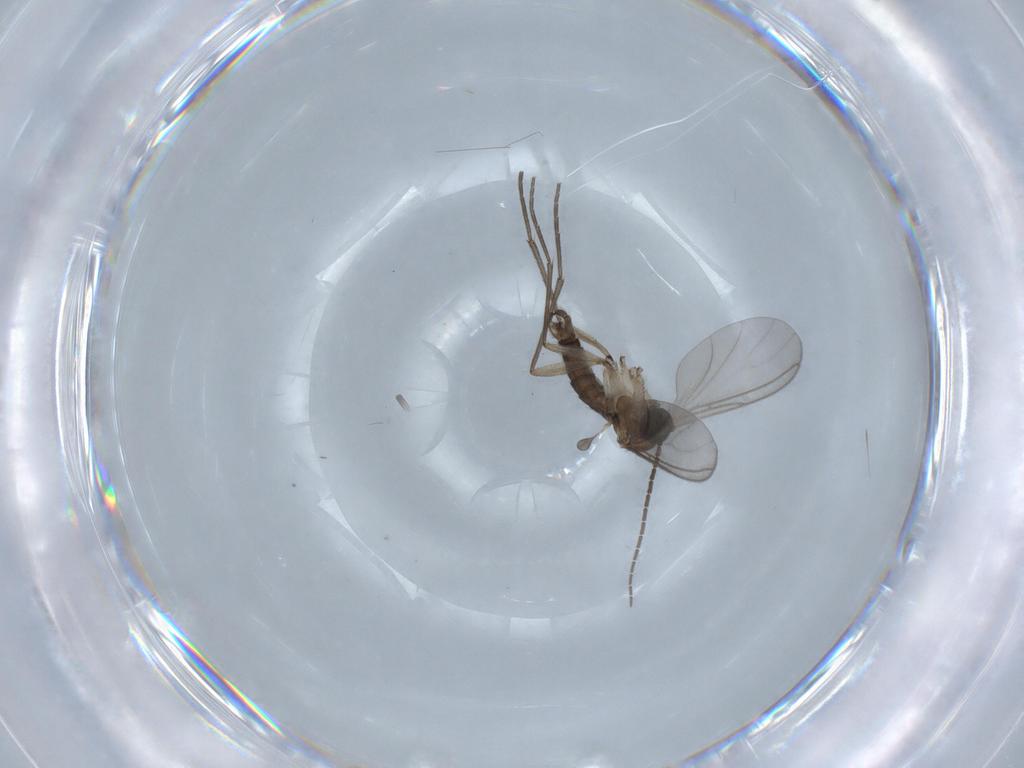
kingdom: Animalia
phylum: Arthropoda
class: Insecta
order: Diptera
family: Sciaridae
